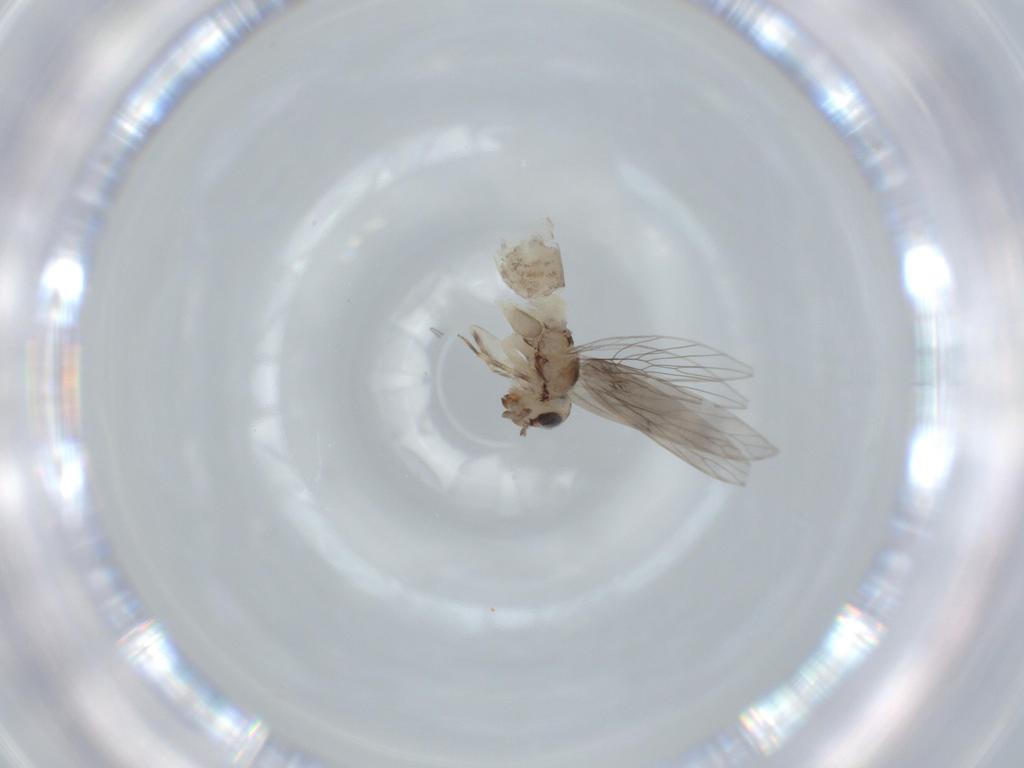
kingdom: Animalia
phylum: Arthropoda
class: Insecta
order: Psocodea
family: Lepidopsocidae
